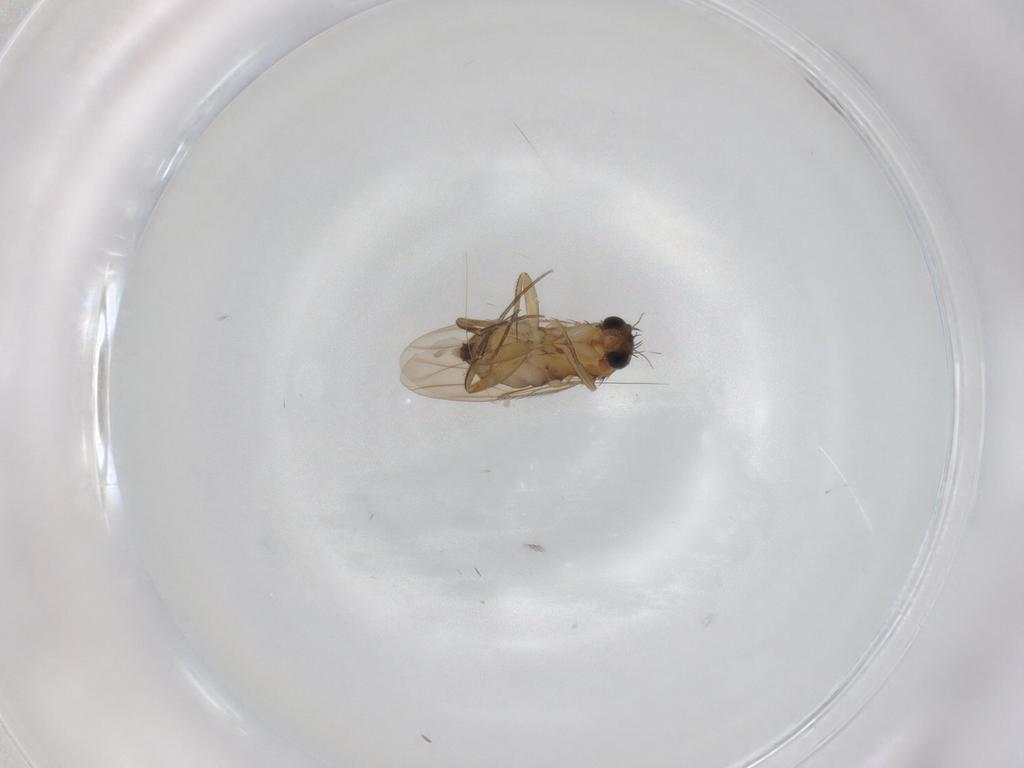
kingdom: Animalia
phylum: Arthropoda
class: Insecta
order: Diptera
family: Phoridae
